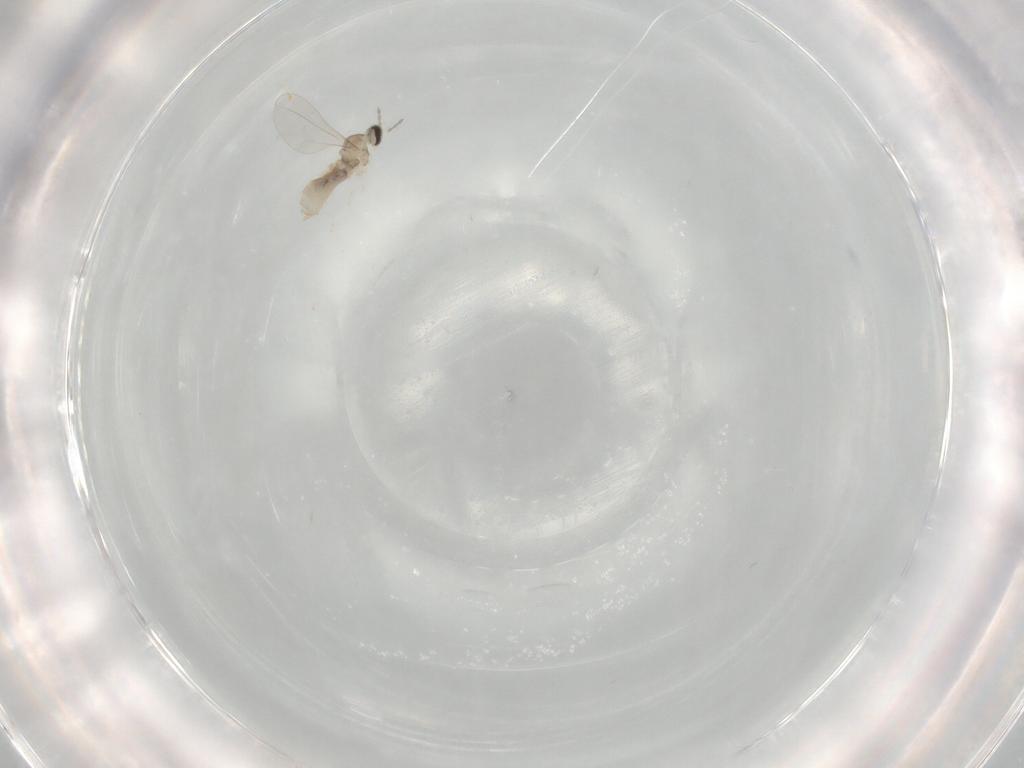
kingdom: Animalia
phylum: Arthropoda
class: Insecta
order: Diptera
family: Cecidomyiidae
